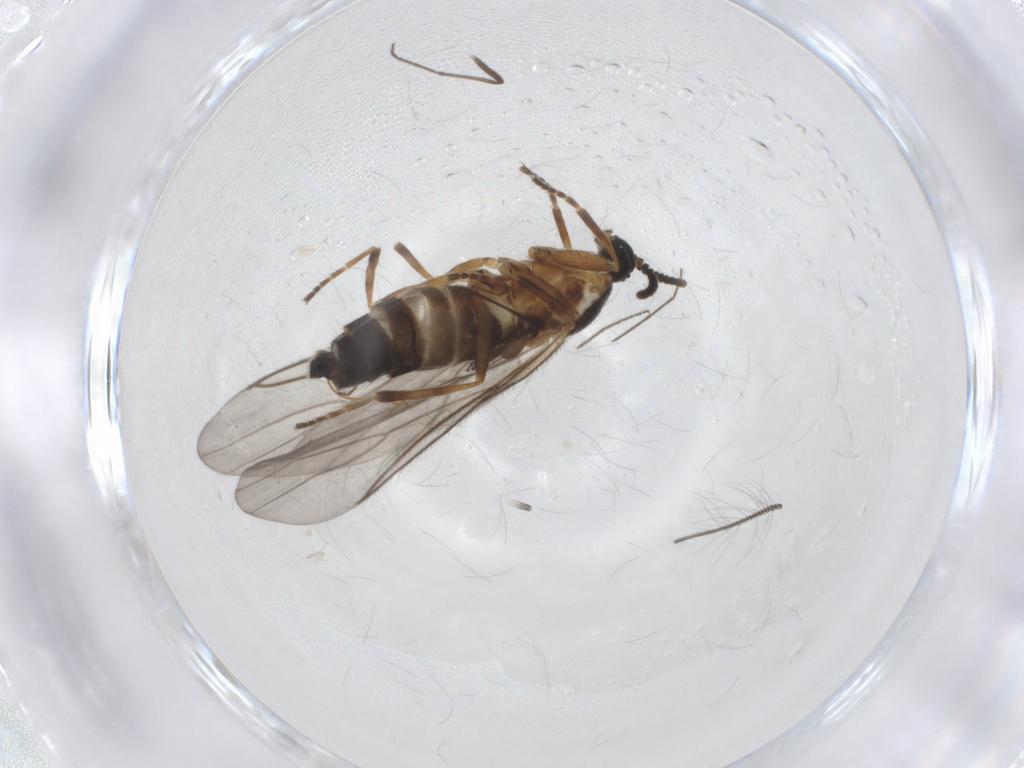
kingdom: Animalia
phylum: Arthropoda
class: Insecta
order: Diptera
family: Scatopsidae
